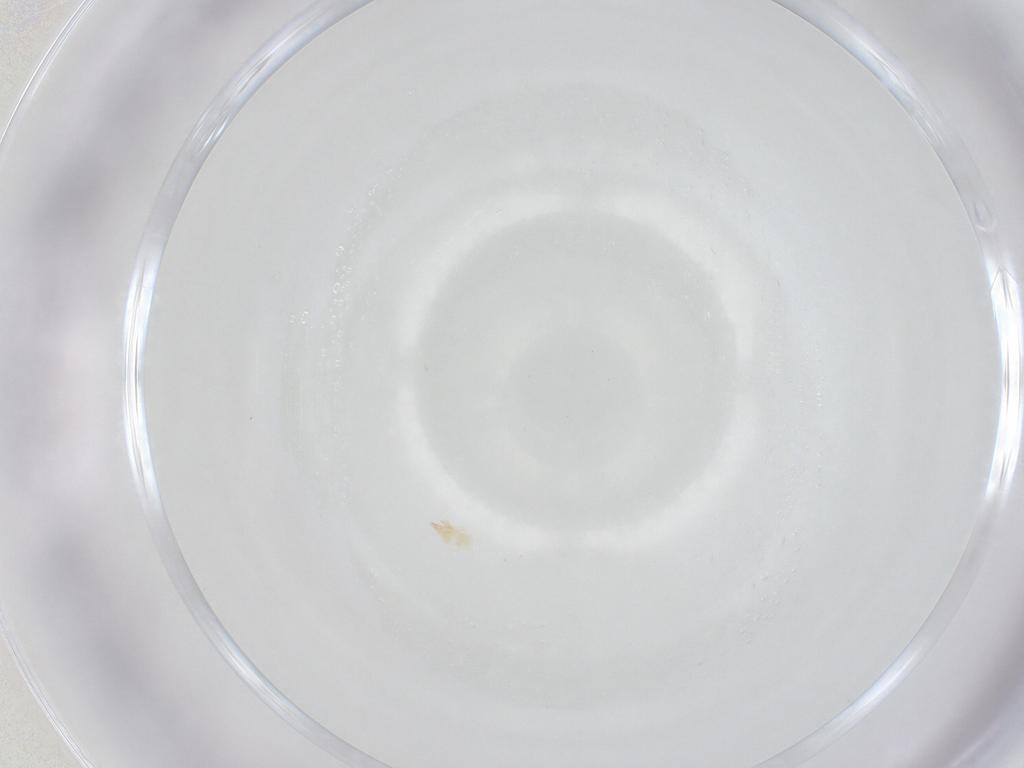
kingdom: Animalia
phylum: Arthropoda
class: Arachnida
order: Trombidiformes
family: Cunaxidae
